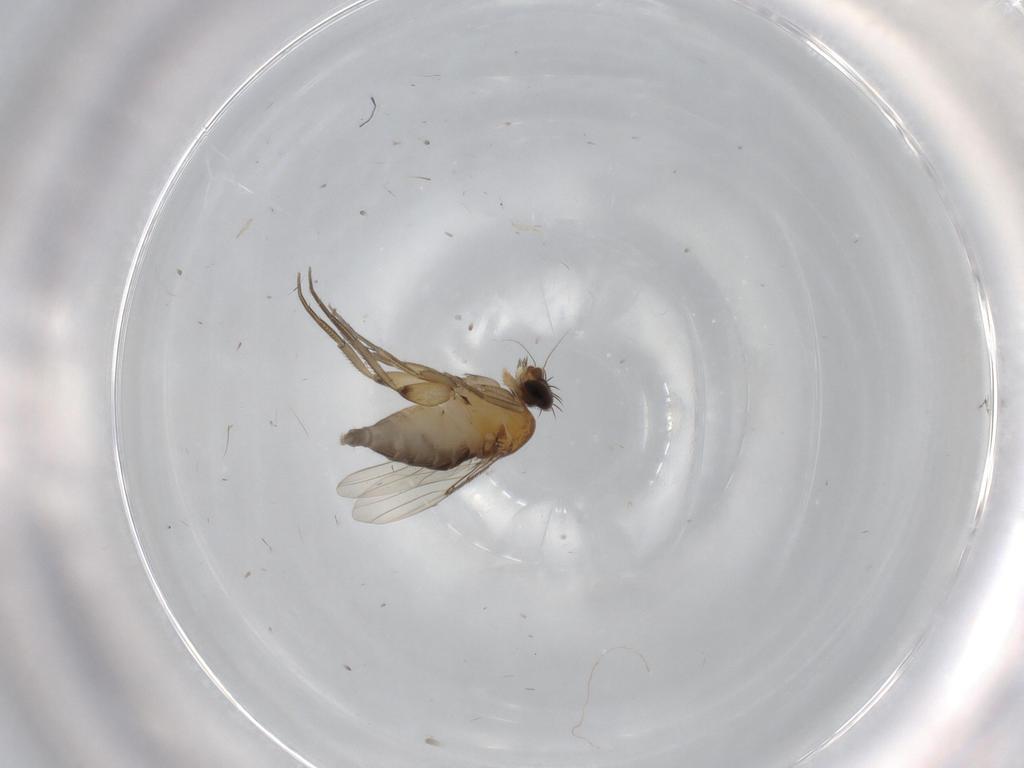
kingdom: Animalia
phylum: Arthropoda
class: Insecta
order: Diptera
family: Phoridae
